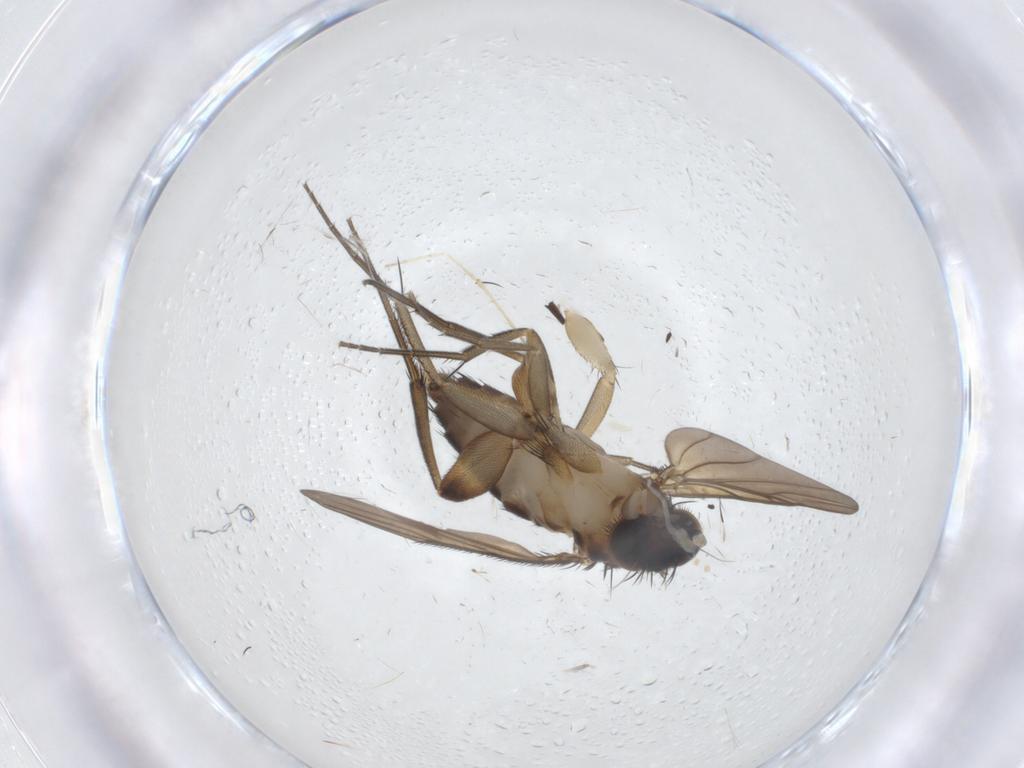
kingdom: Animalia
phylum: Arthropoda
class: Insecta
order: Diptera
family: Phoridae
